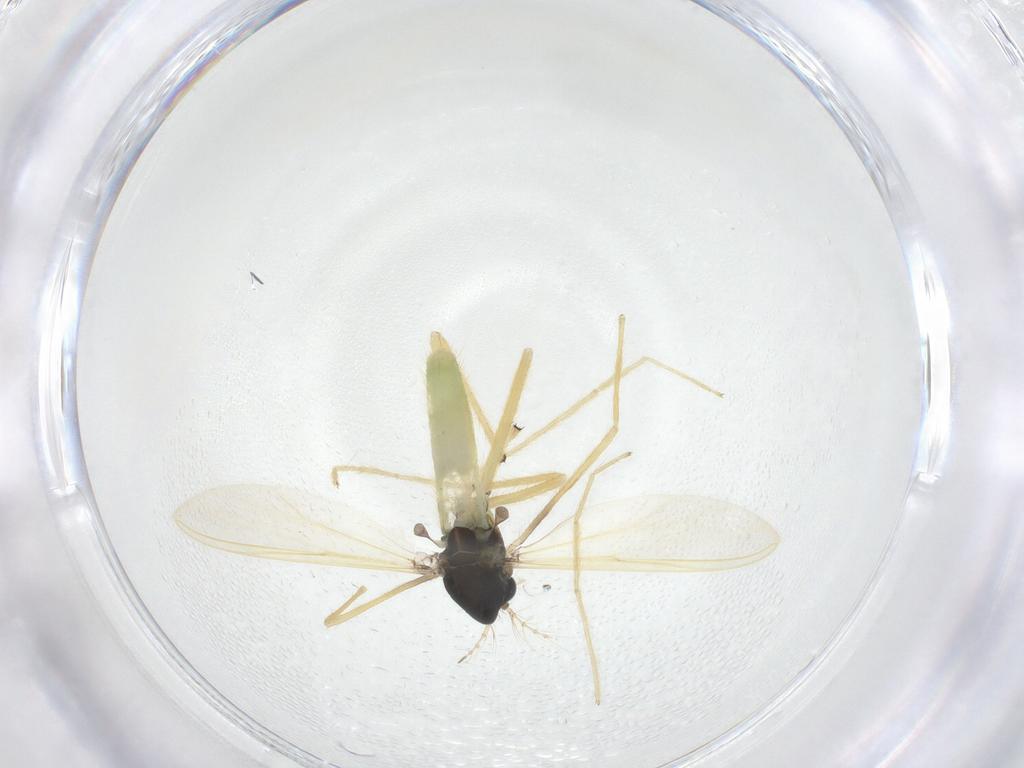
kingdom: Animalia
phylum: Arthropoda
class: Insecta
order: Diptera
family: Chironomidae
